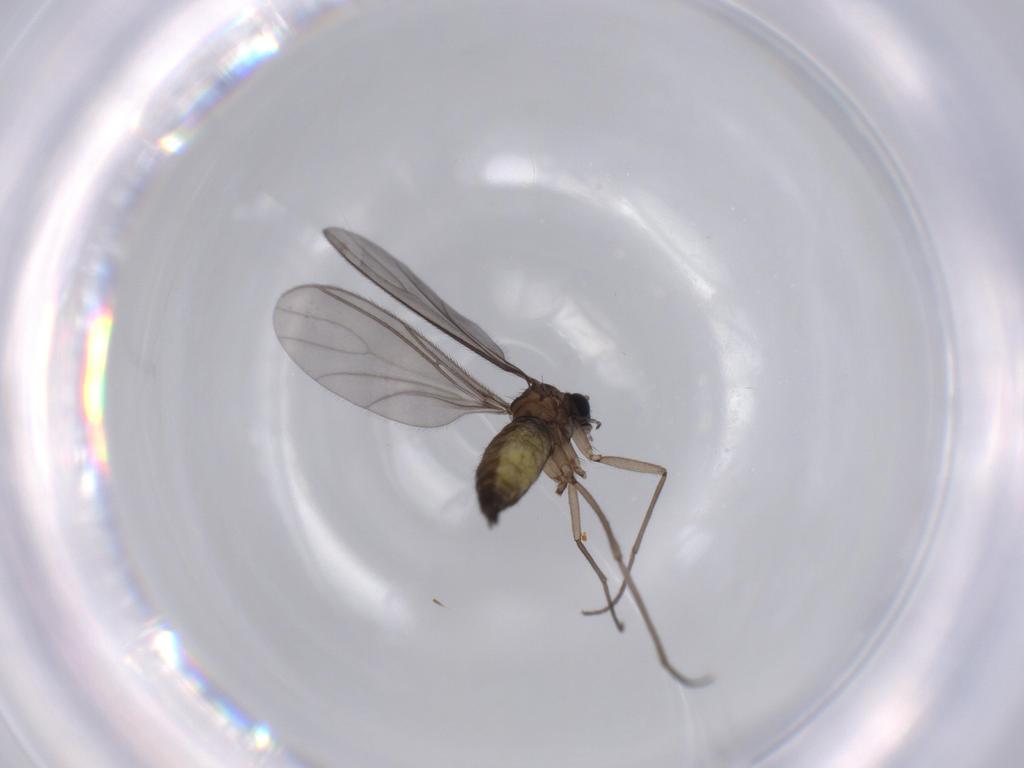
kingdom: Animalia
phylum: Arthropoda
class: Insecta
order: Diptera
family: Sciaridae
